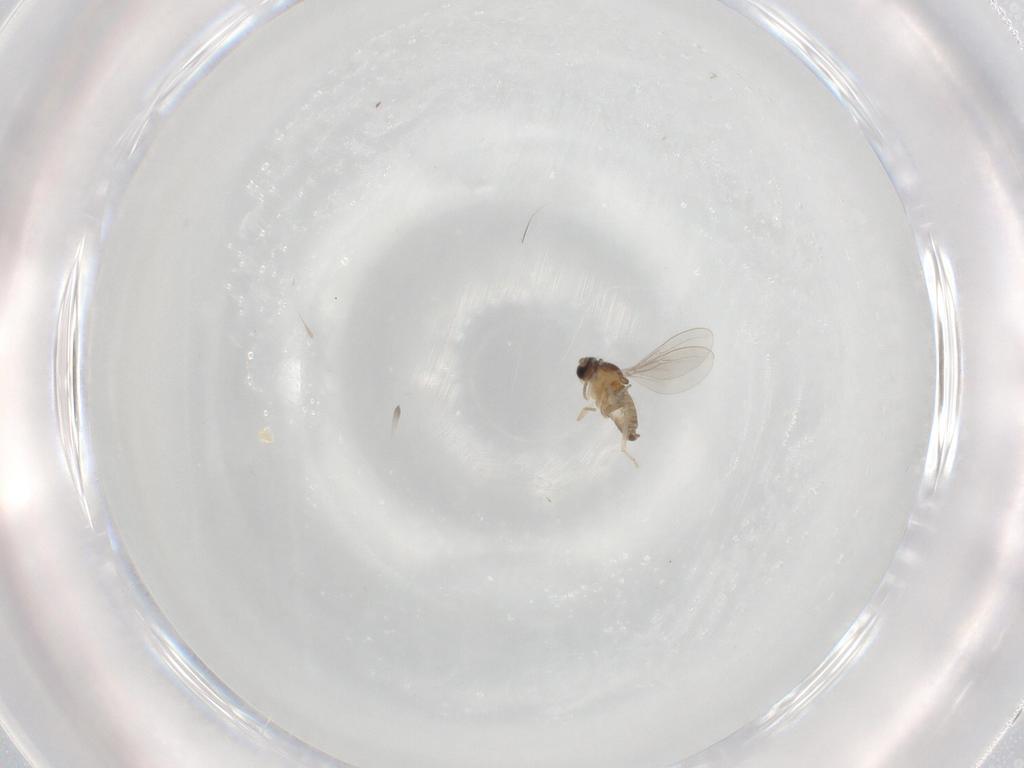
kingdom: Animalia
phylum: Arthropoda
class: Insecta
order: Diptera
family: Cecidomyiidae
